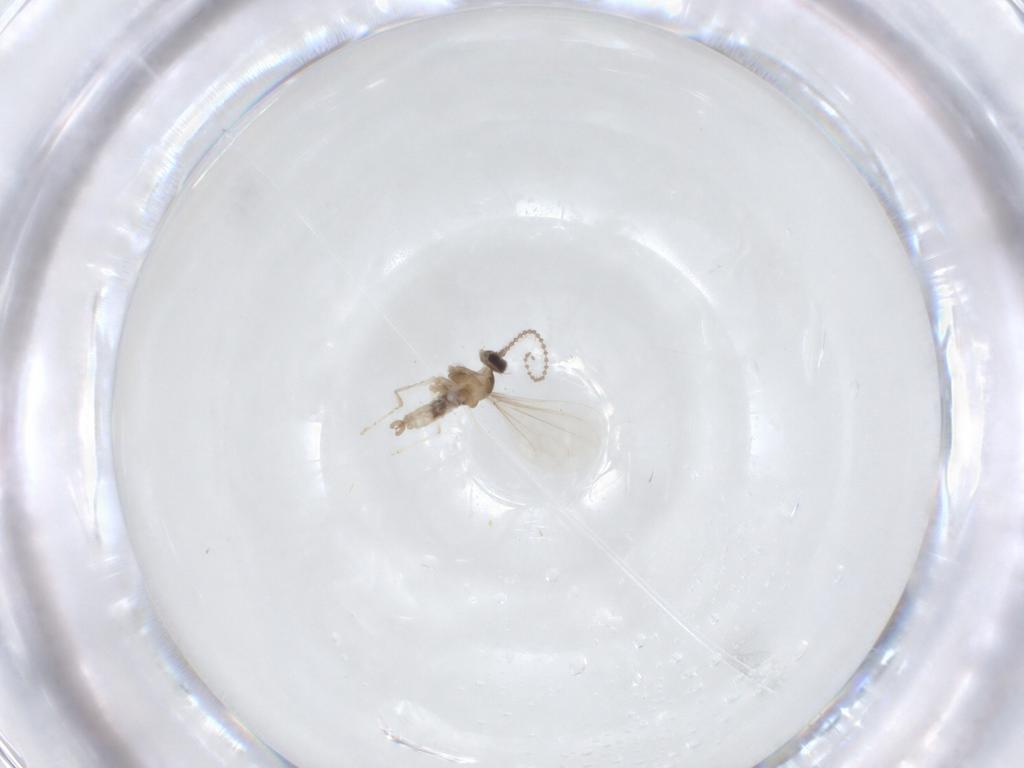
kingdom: Animalia
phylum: Arthropoda
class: Insecta
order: Diptera
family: Cecidomyiidae
